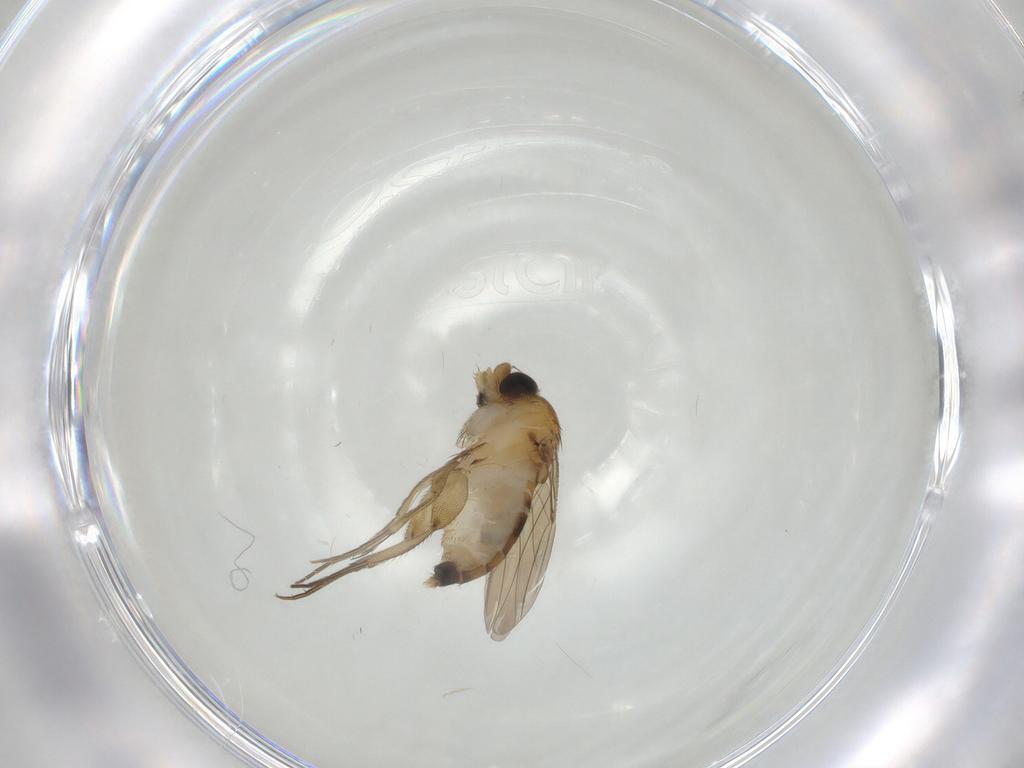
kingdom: Animalia
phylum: Arthropoda
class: Insecta
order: Diptera
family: Phoridae
